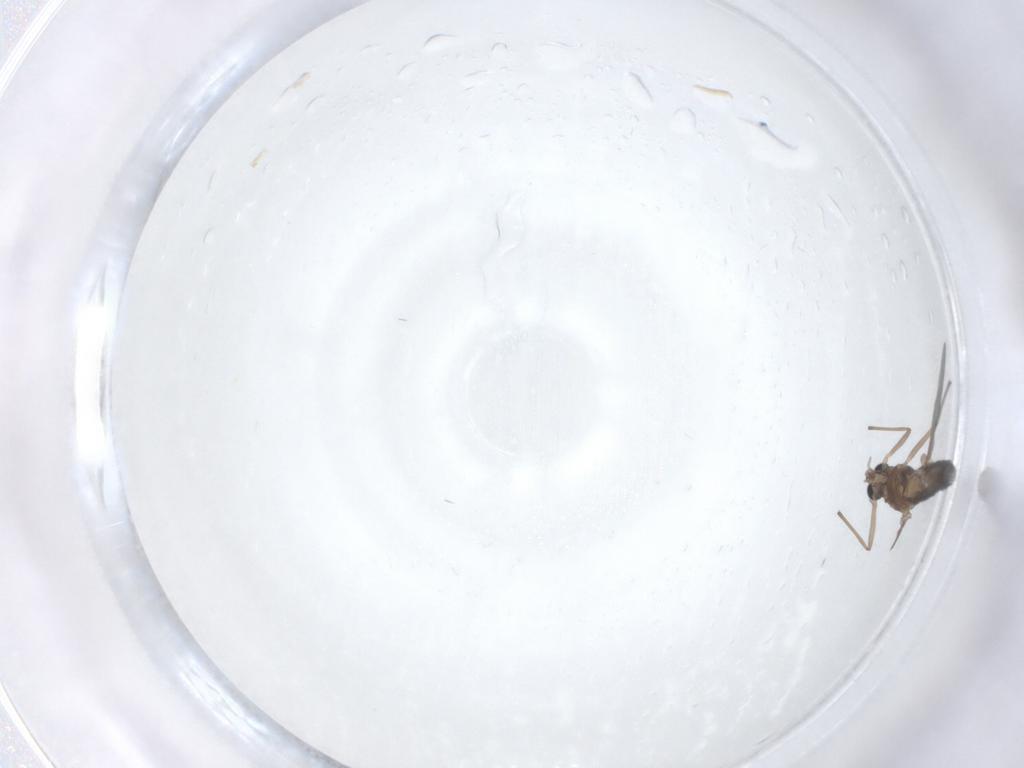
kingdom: Animalia
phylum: Arthropoda
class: Insecta
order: Diptera
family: Chironomidae
